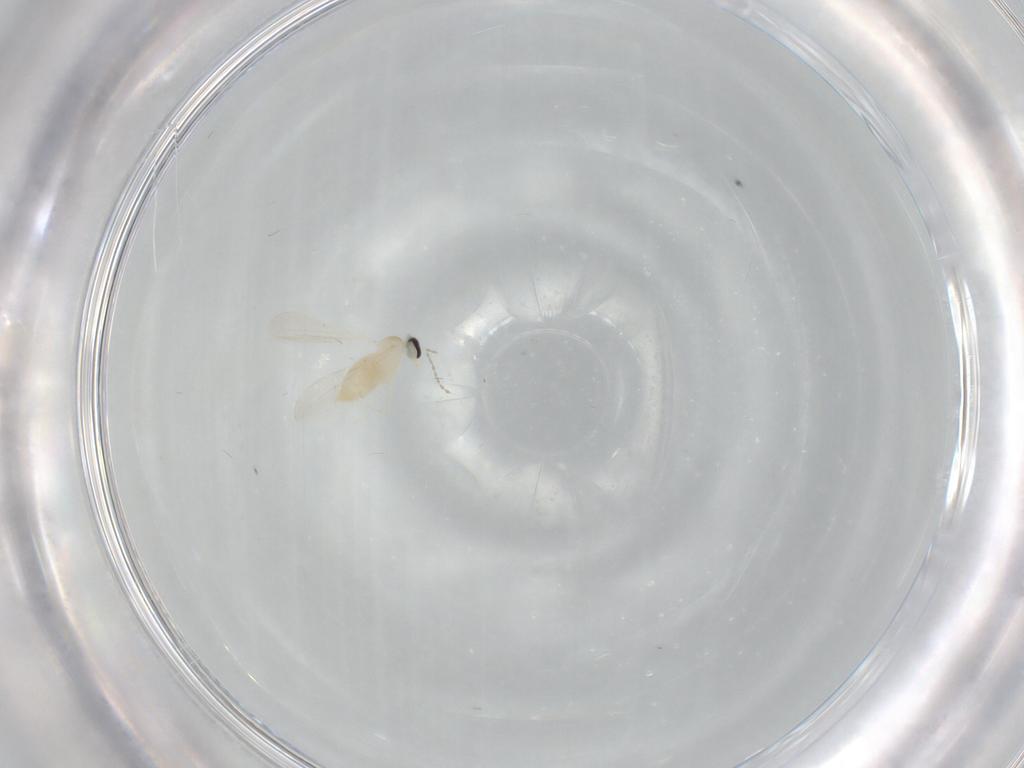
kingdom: Animalia
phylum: Arthropoda
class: Insecta
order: Diptera
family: Cecidomyiidae
